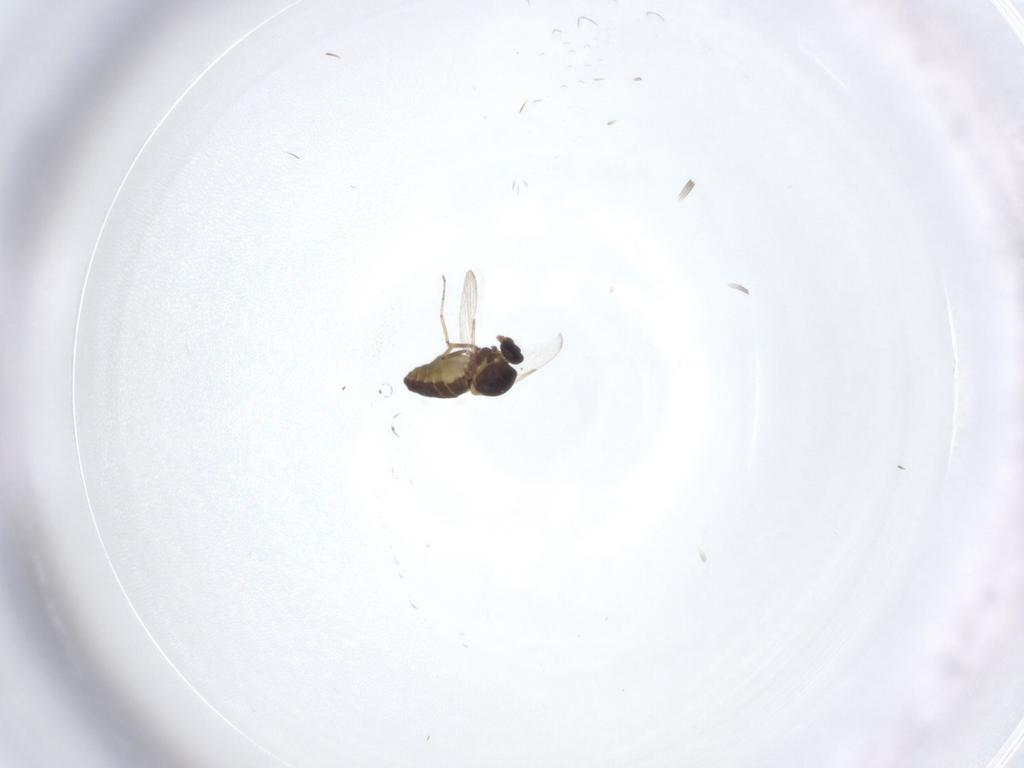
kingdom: Animalia
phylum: Arthropoda
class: Insecta
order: Diptera
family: Ceratopogonidae
